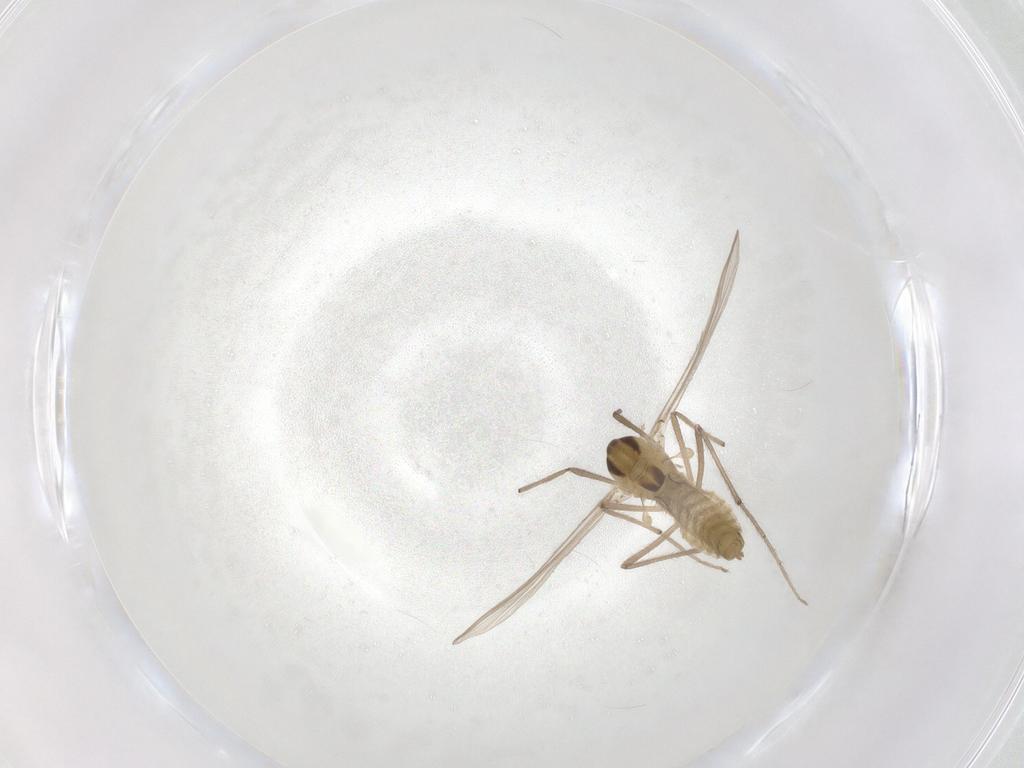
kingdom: Animalia
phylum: Arthropoda
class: Insecta
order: Diptera
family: Chironomidae
